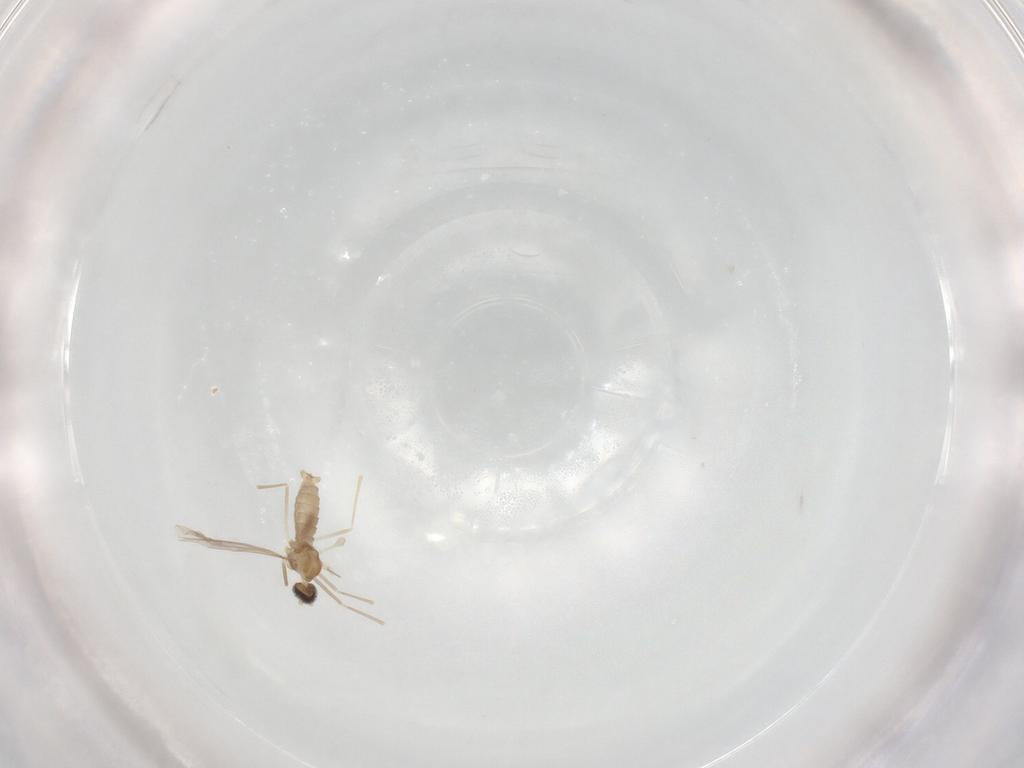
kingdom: Animalia
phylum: Arthropoda
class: Insecta
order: Diptera
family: Cecidomyiidae
